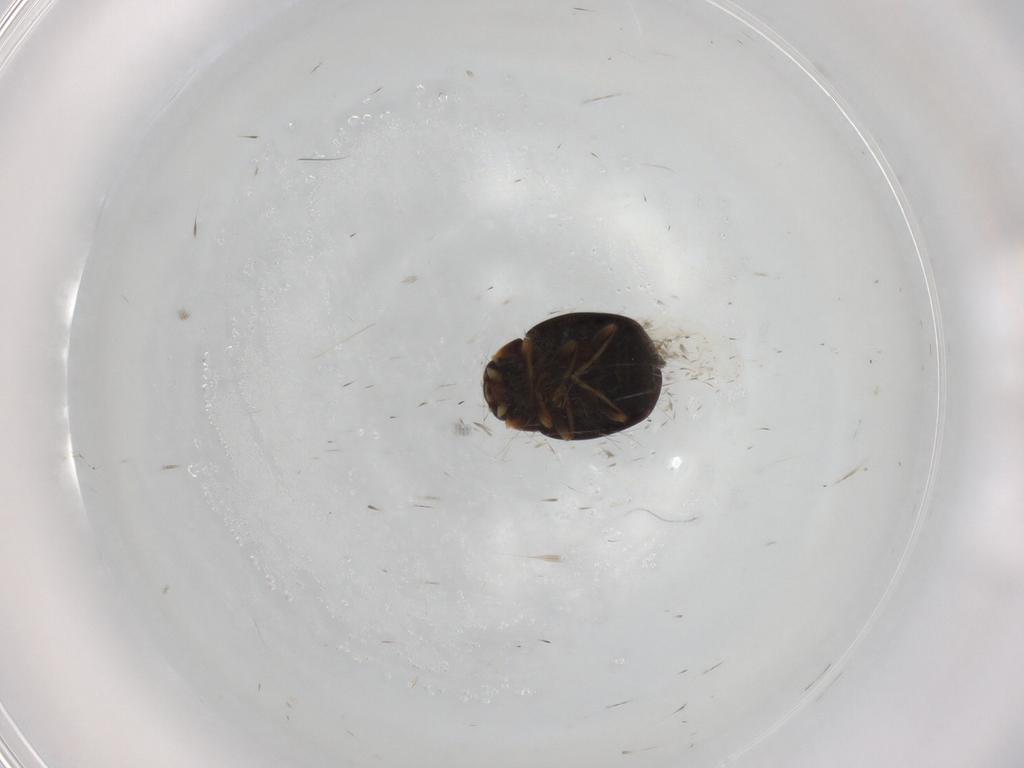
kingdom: Animalia
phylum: Arthropoda
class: Insecta
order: Coleoptera
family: Coccinellidae
